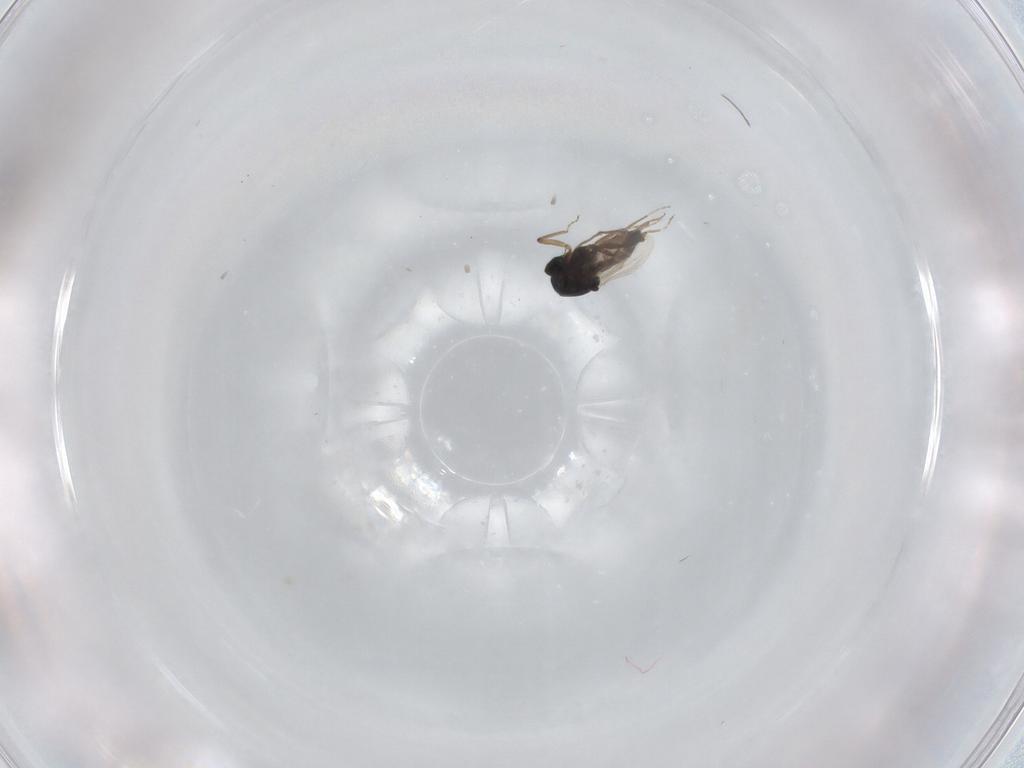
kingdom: Animalia
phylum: Arthropoda
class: Insecta
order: Diptera
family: Ceratopogonidae
